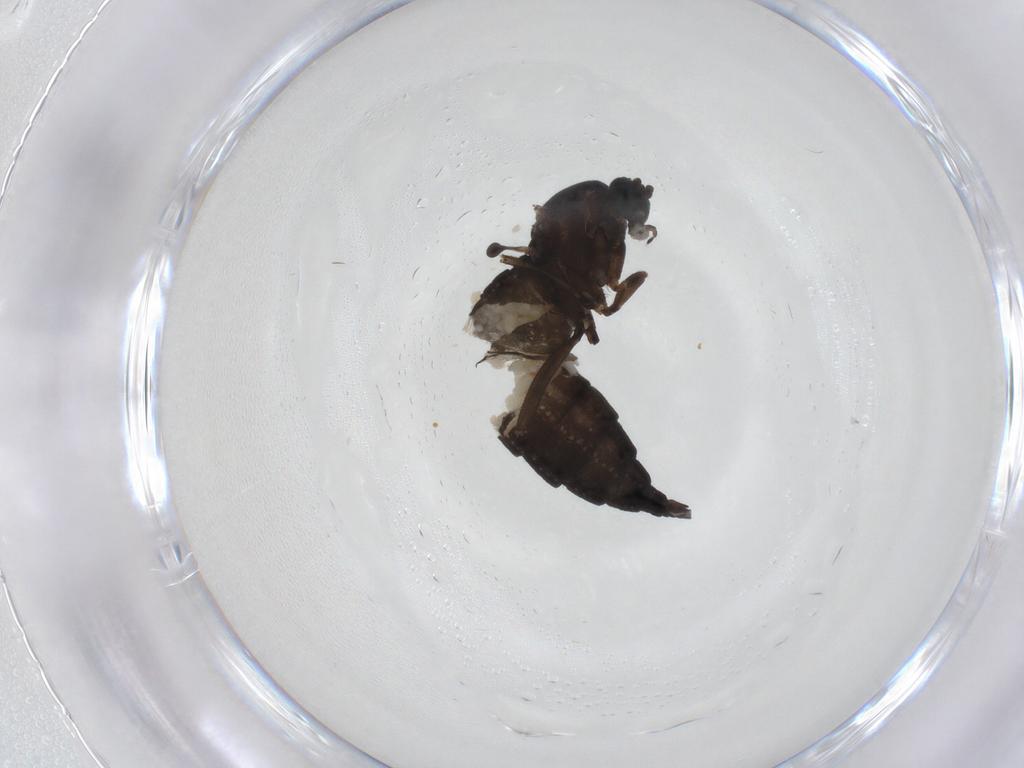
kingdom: Animalia
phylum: Arthropoda
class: Insecta
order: Diptera
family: Sciaridae
